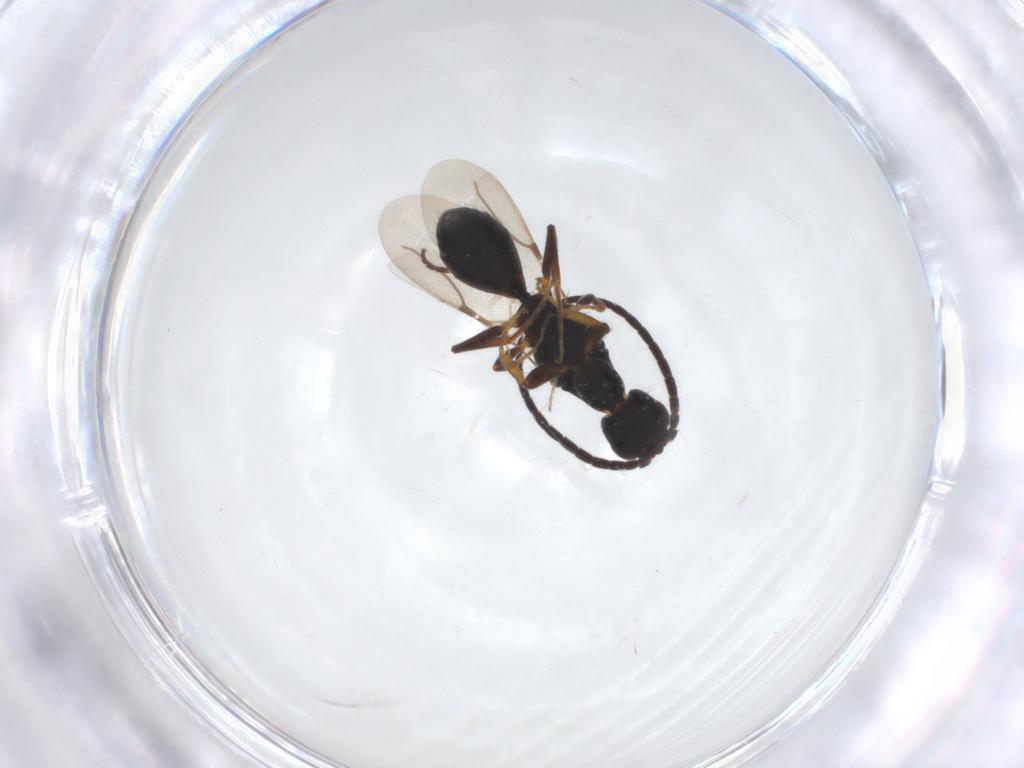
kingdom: Animalia
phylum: Arthropoda
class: Insecta
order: Hymenoptera
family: Bethylidae
